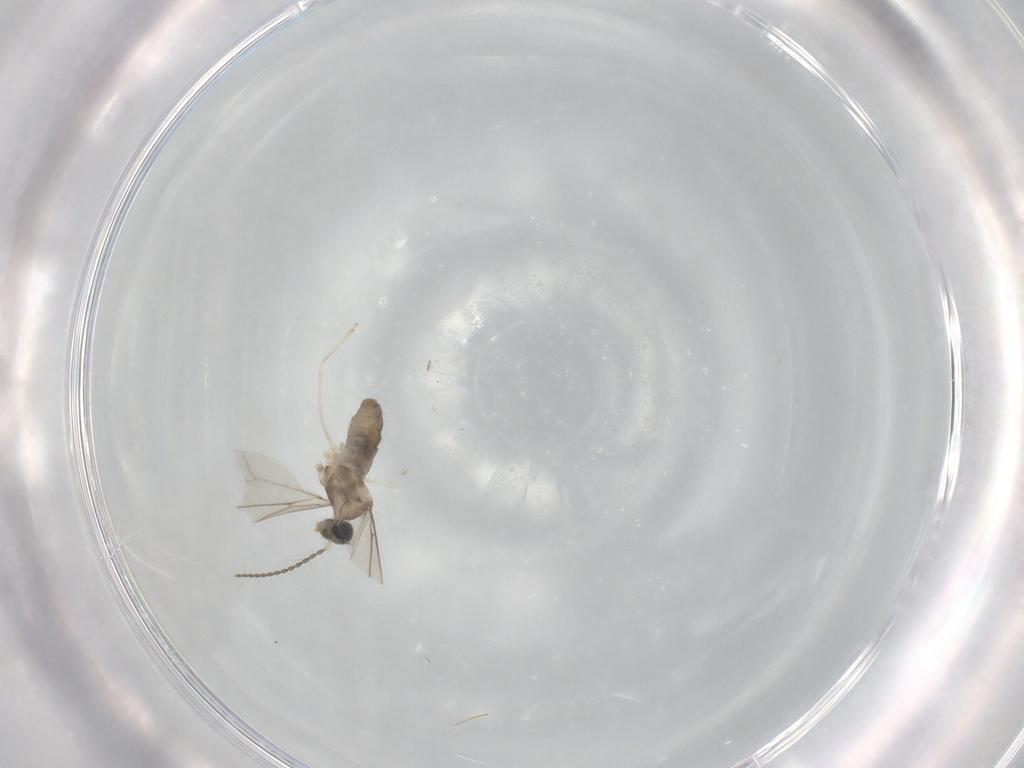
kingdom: Animalia
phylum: Arthropoda
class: Insecta
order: Diptera
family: Cecidomyiidae
